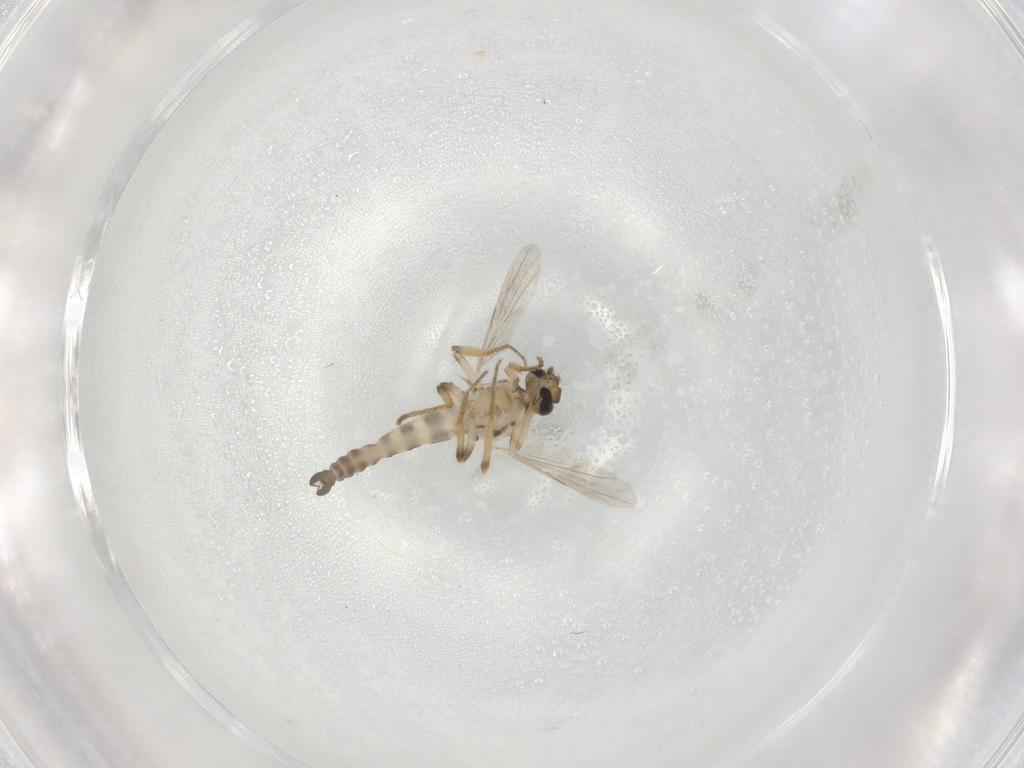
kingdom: Animalia
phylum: Arthropoda
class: Insecta
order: Diptera
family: Ceratopogonidae
